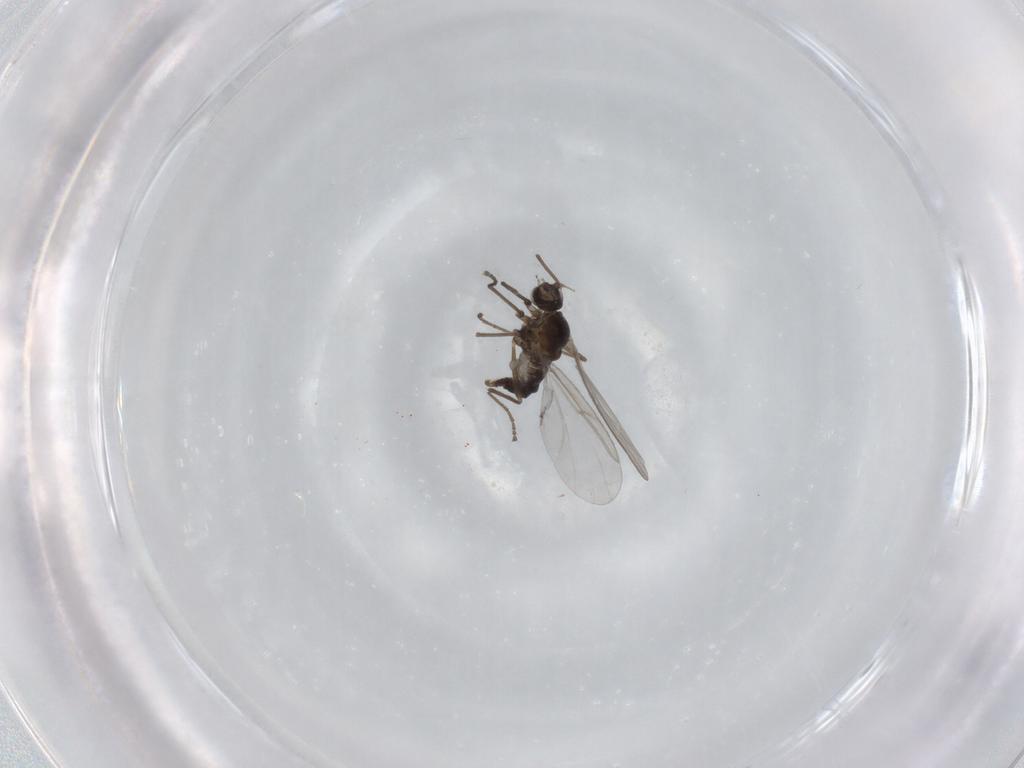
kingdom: Animalia
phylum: Arthropoda
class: Insecta
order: Diptera
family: Cecidomyiidae
